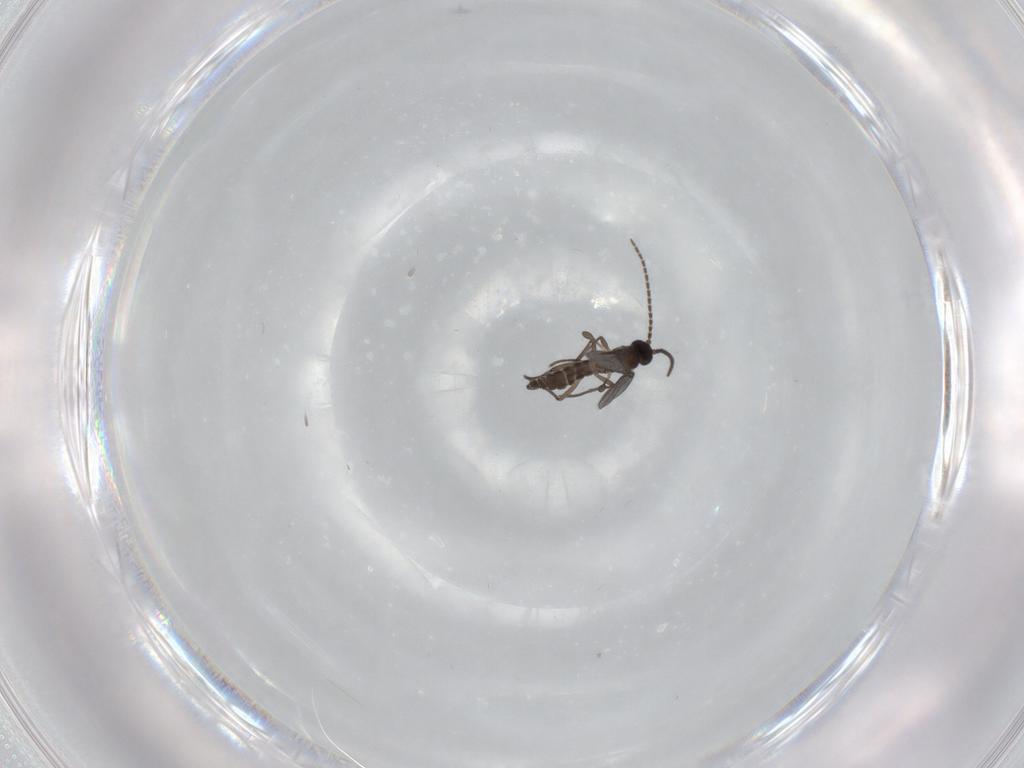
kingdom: Animalia
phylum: Arthropoda
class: Insecta
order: Diptera
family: Sciaridae
